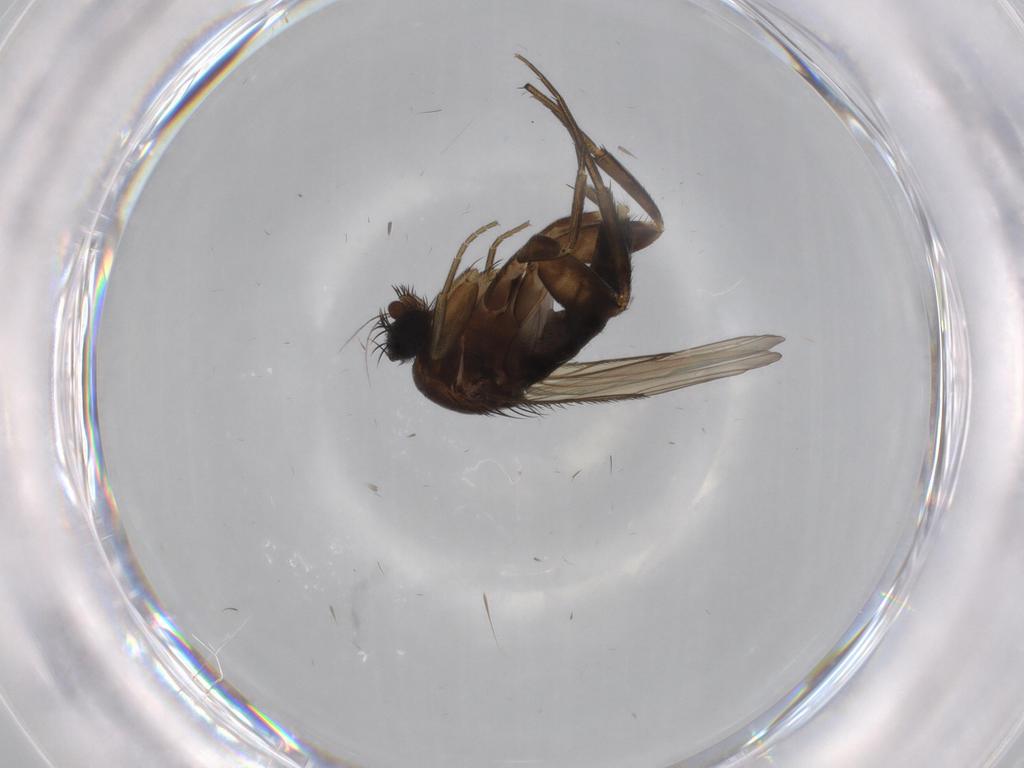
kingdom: Animalia
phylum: Arthropoda
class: Insecta
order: Diptera
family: Phoridae
